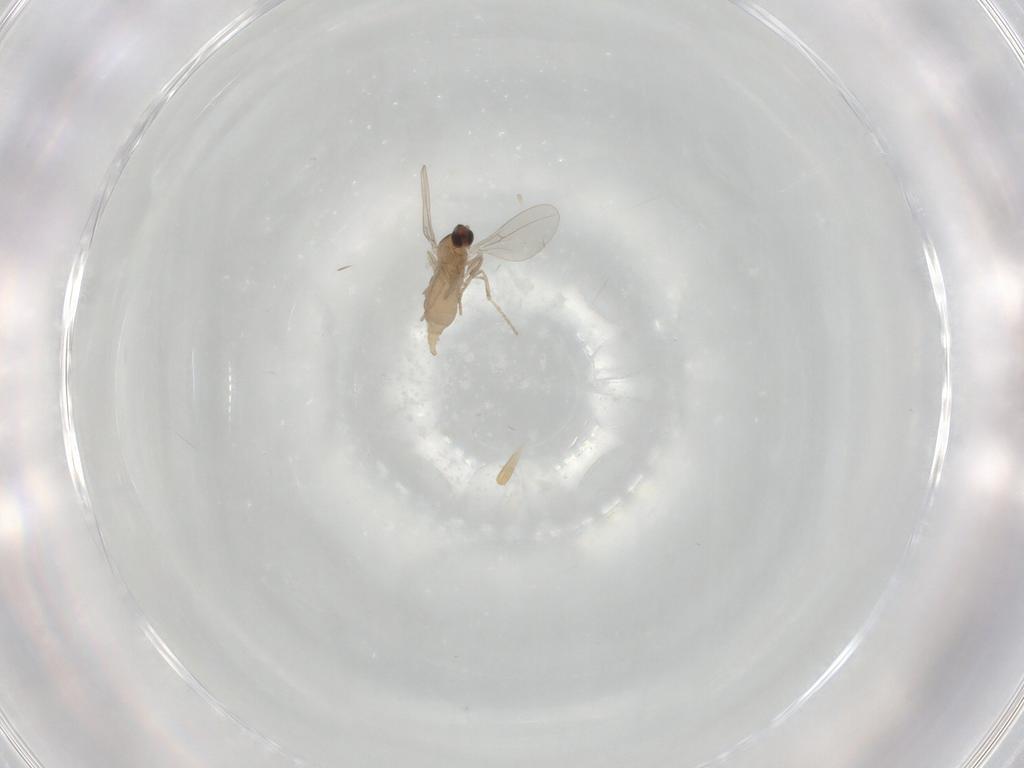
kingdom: Animalia
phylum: Arthropoda
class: Insecta
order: Diptera
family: Cecidomyiidae
